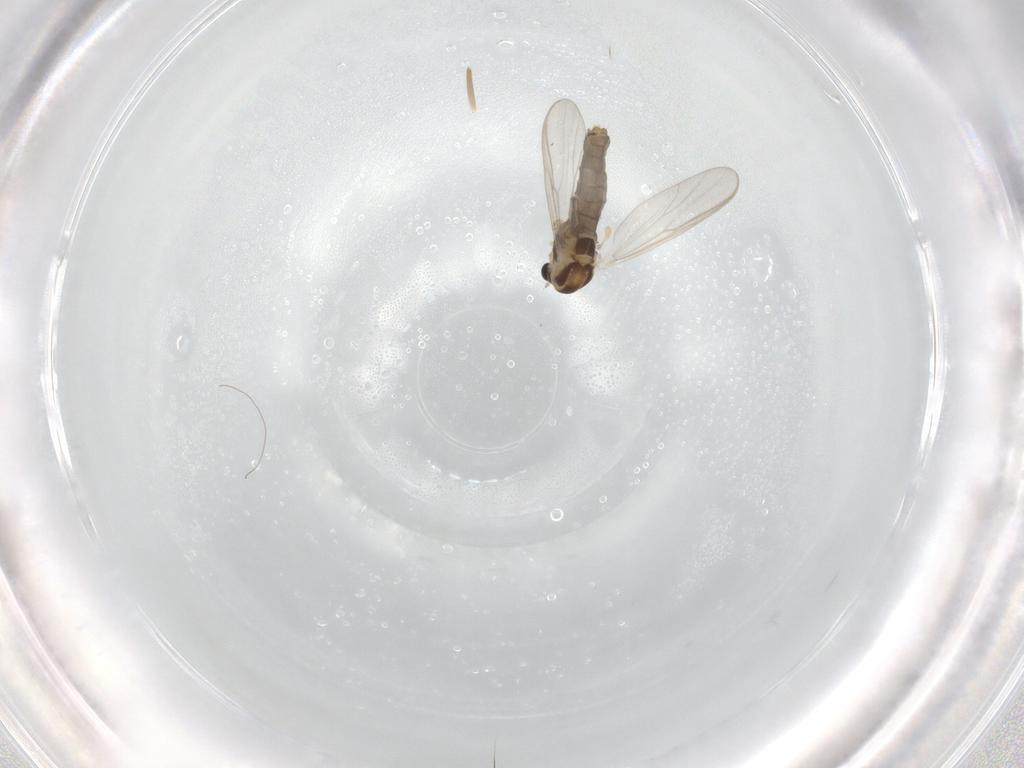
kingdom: Animalia
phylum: Arthropoda
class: Insecta
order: Diptera
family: Chironomidae
